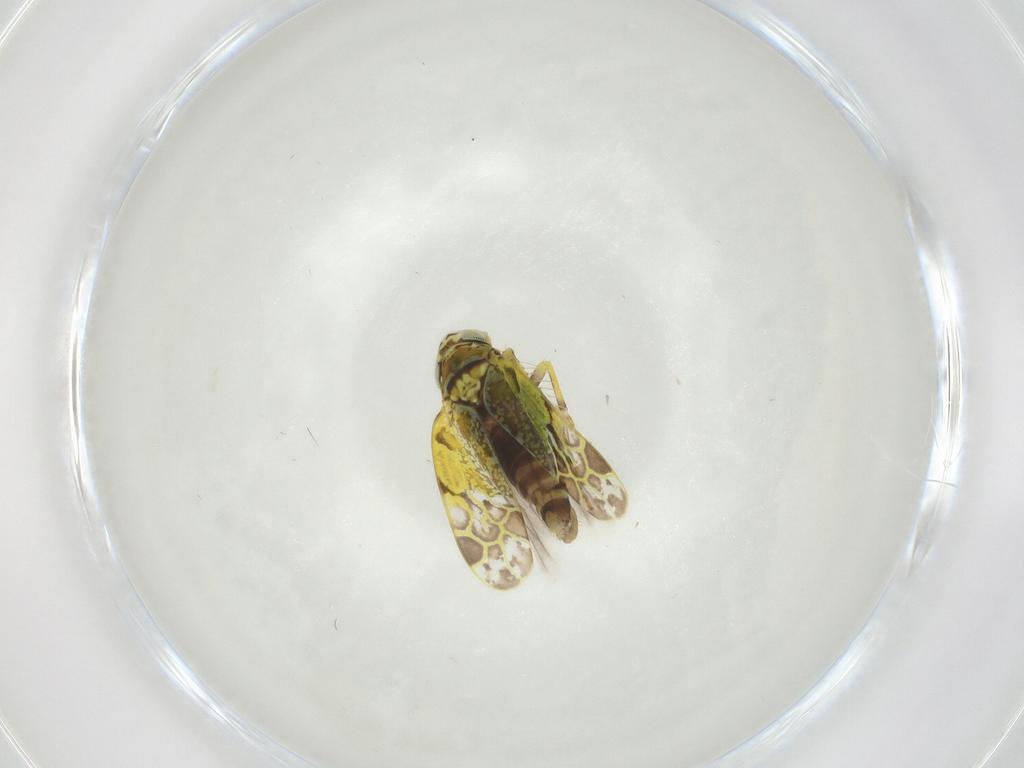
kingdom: Animalia
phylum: Arthropoda
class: Insecta
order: Hemiptera
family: Cicadellidae
